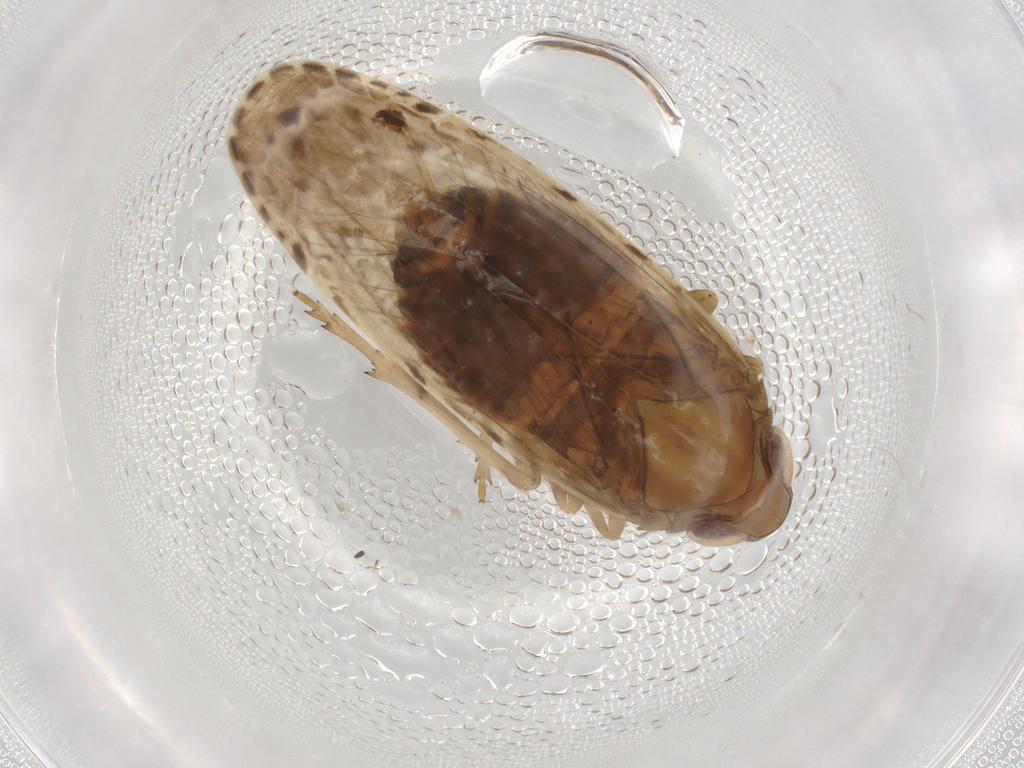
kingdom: Animalia
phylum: Arthropoda
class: Insecta
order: Hemiptera
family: Rhyparochromidae
